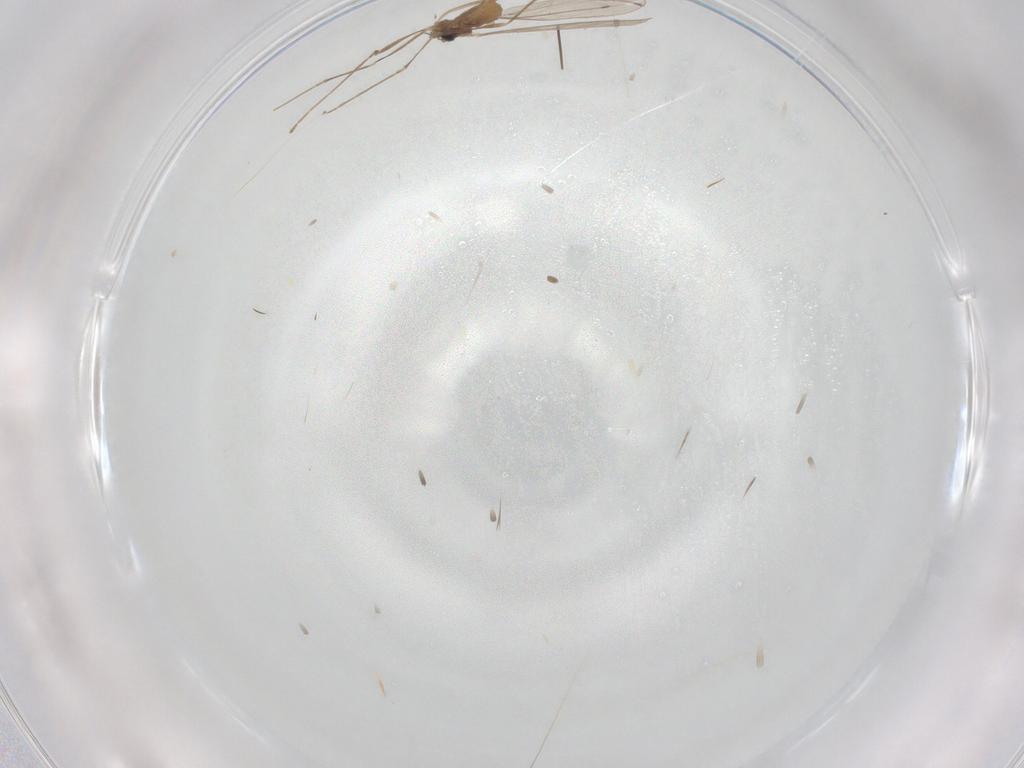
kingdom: Animalia
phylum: Arthropoda
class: Insecta
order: Diptera
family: Cecidomyiidae
